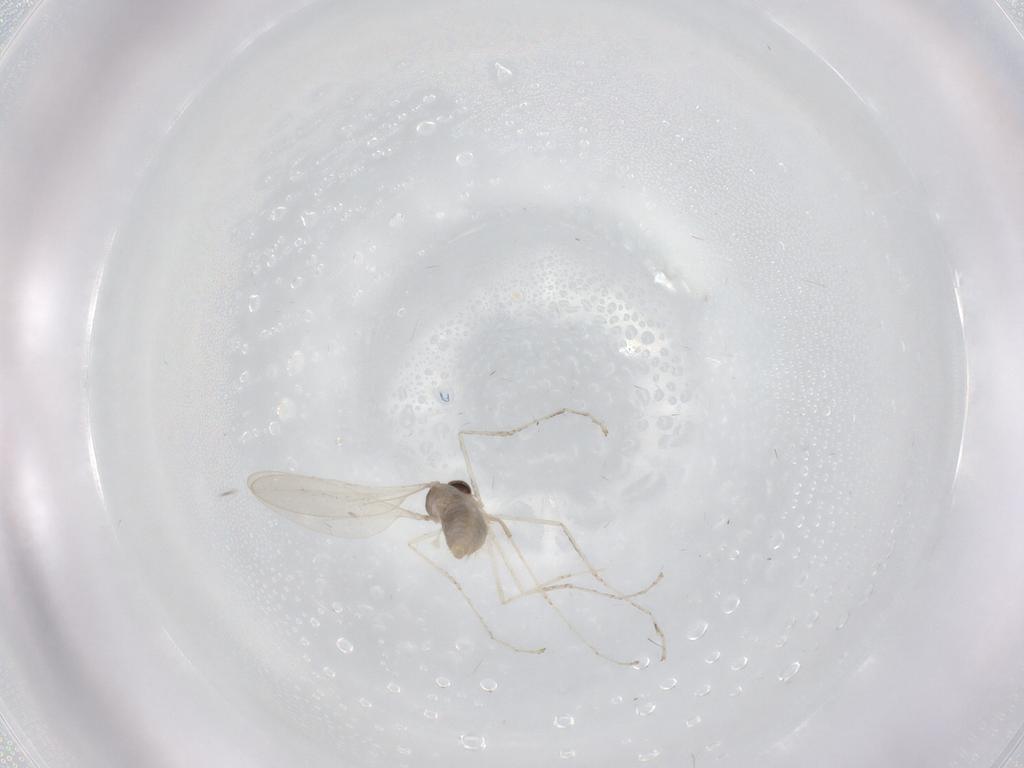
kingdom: Animalia
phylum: Arthropoda
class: Insecta
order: Diptera
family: Cecidomyiidae
